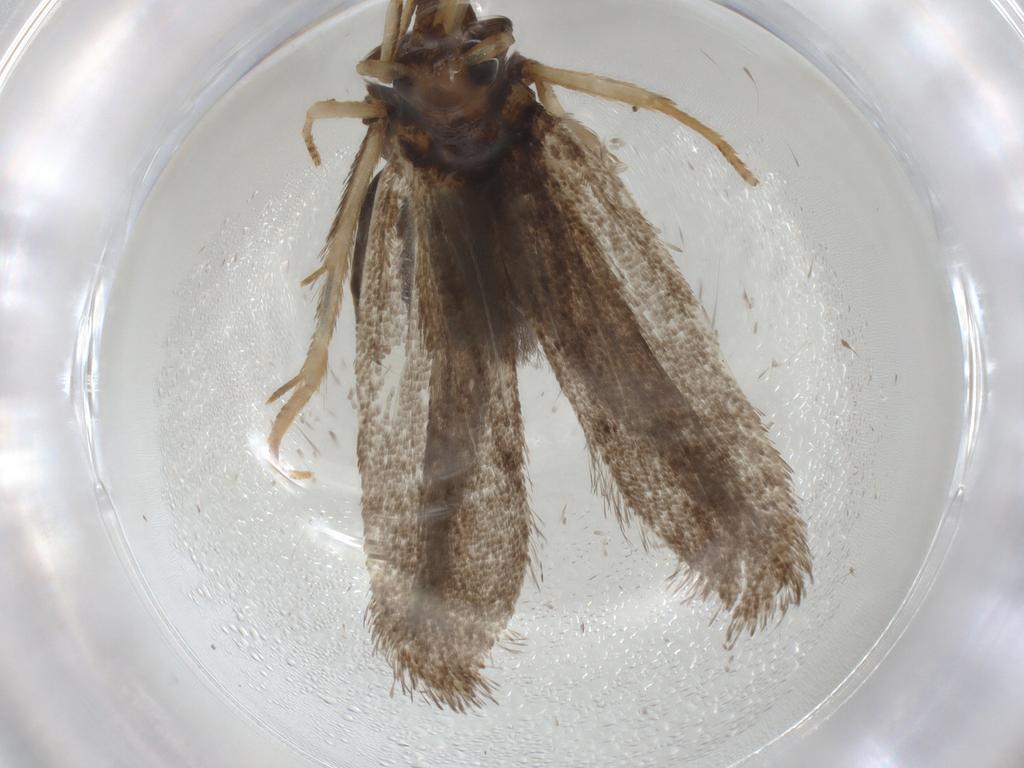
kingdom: Animalia
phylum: Arthropoda
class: Insecta
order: Lepidoptera
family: Lecithoceridae
